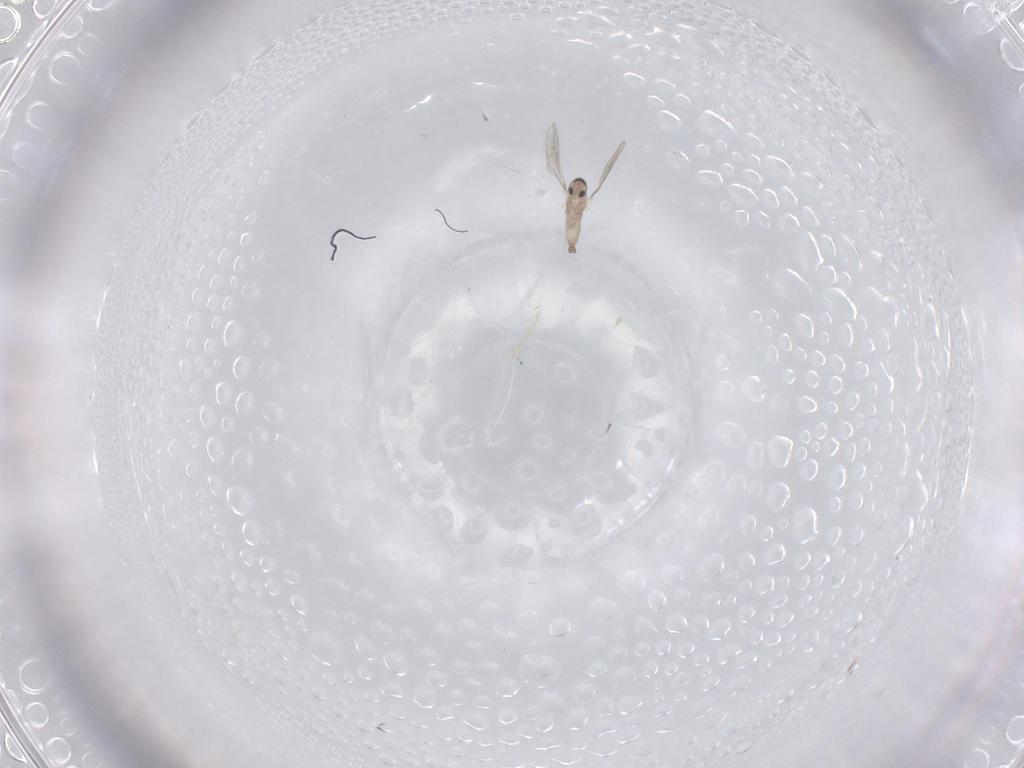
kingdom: Animalia
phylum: Arthropoda
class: Insecta
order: Diptera
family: Cecidomyiidae
